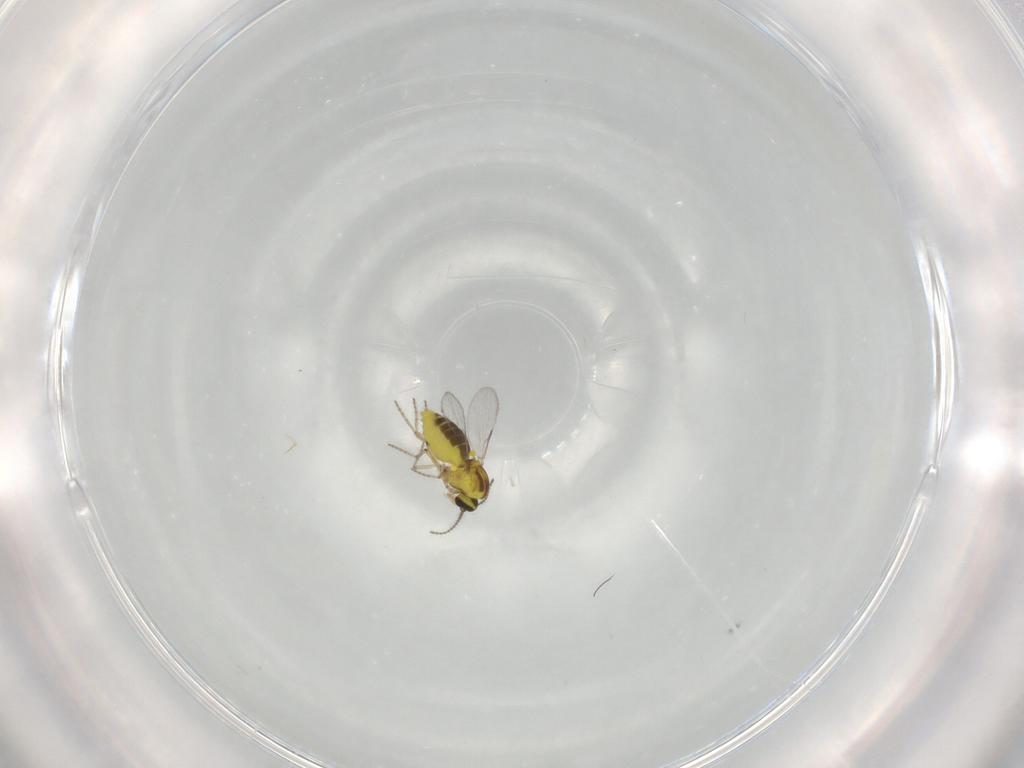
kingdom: Animalia
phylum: Arthropoda
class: Insecta
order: Diptera
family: Ceratopogonidae
